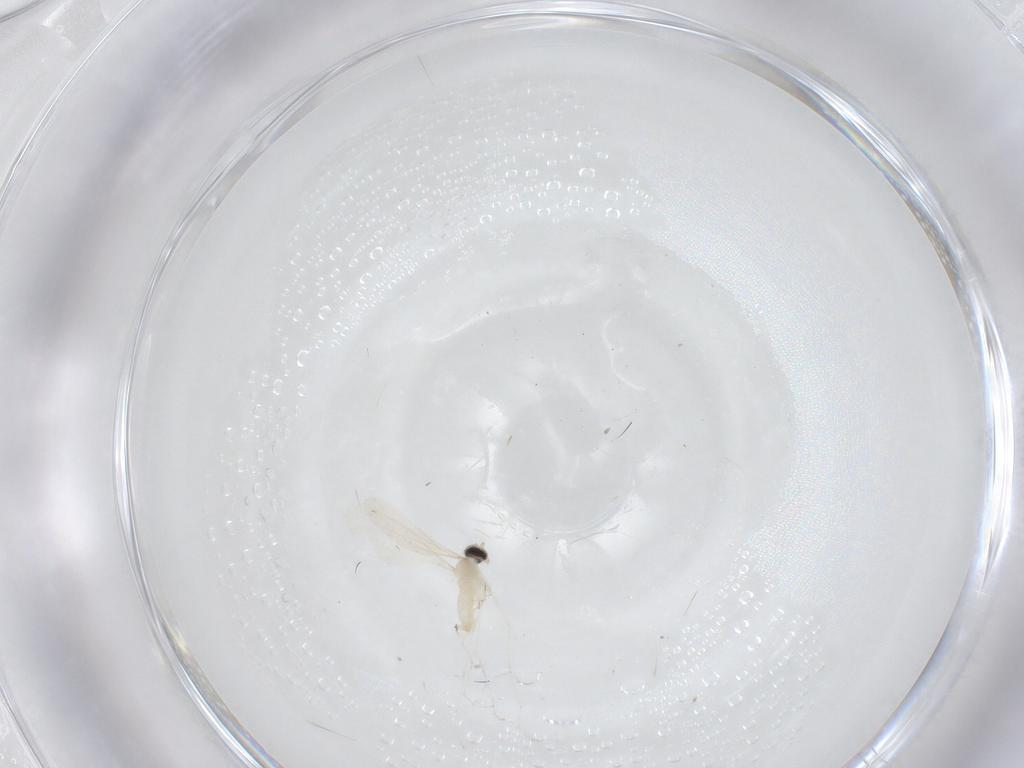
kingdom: Animalia
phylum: Arthropoda
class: Insecta
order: Diptera
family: Cecidomyiidae
